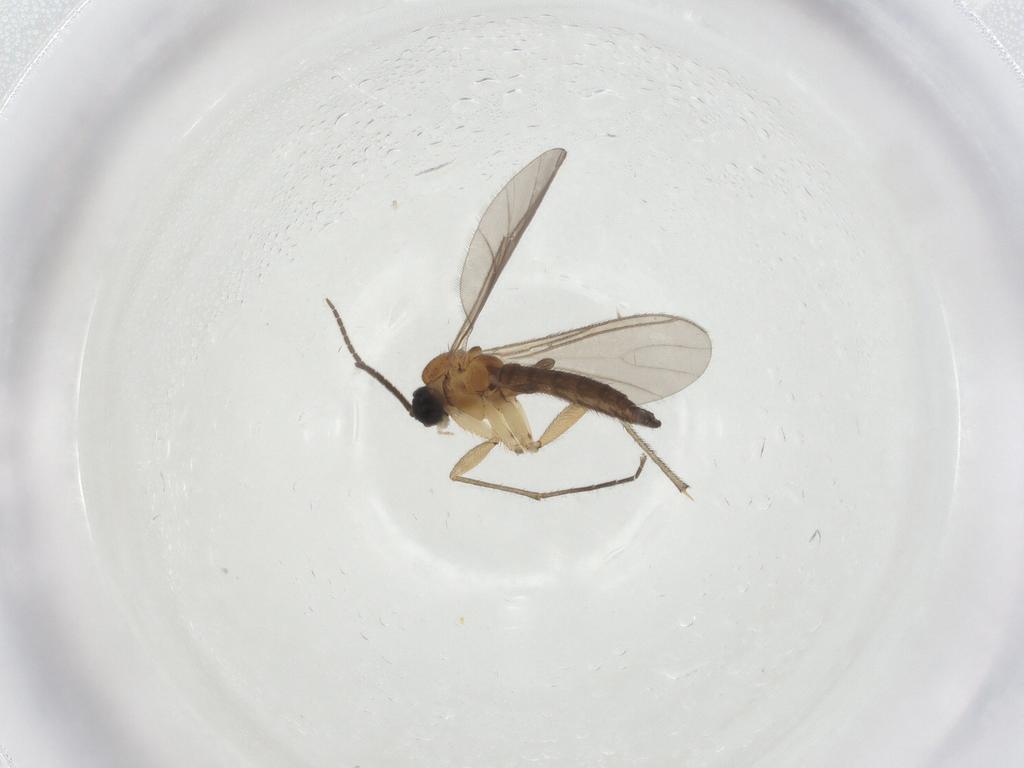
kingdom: Animalia
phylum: Arthropoda
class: Insecta
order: Diptera
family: Sciaridae
